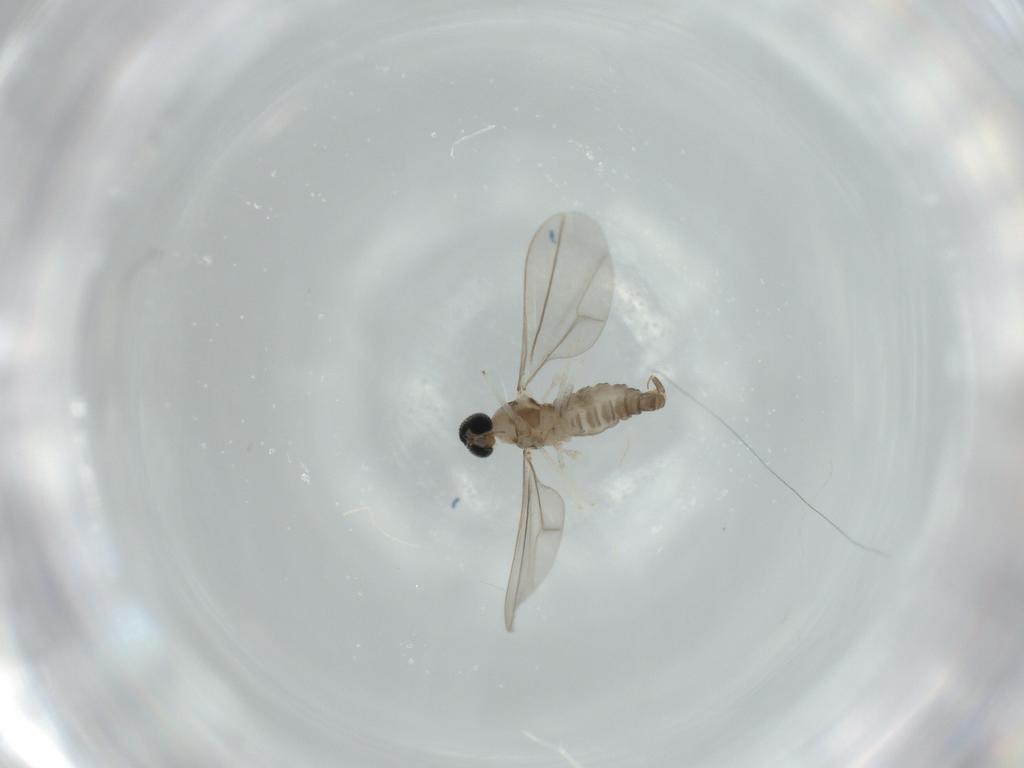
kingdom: Animalia
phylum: Arthropoda
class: Insecta
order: Diptera
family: Cecidomyiidae
